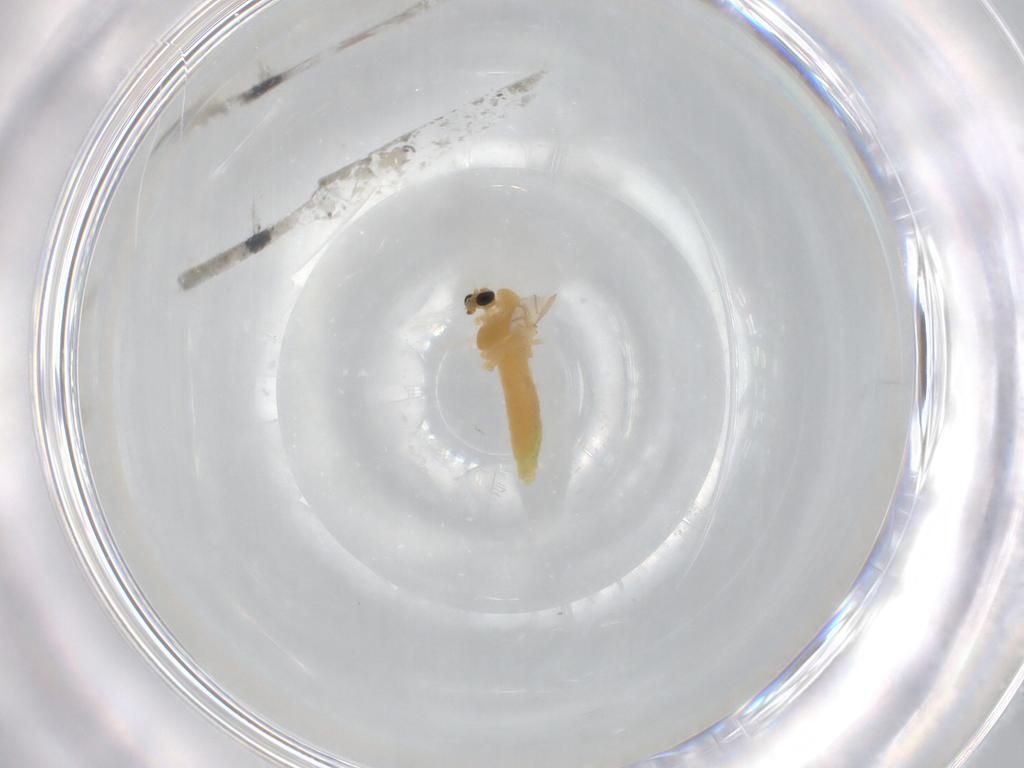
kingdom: Animalia
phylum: Arthropoda
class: Insecta
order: Diptera
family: Chironomidae
